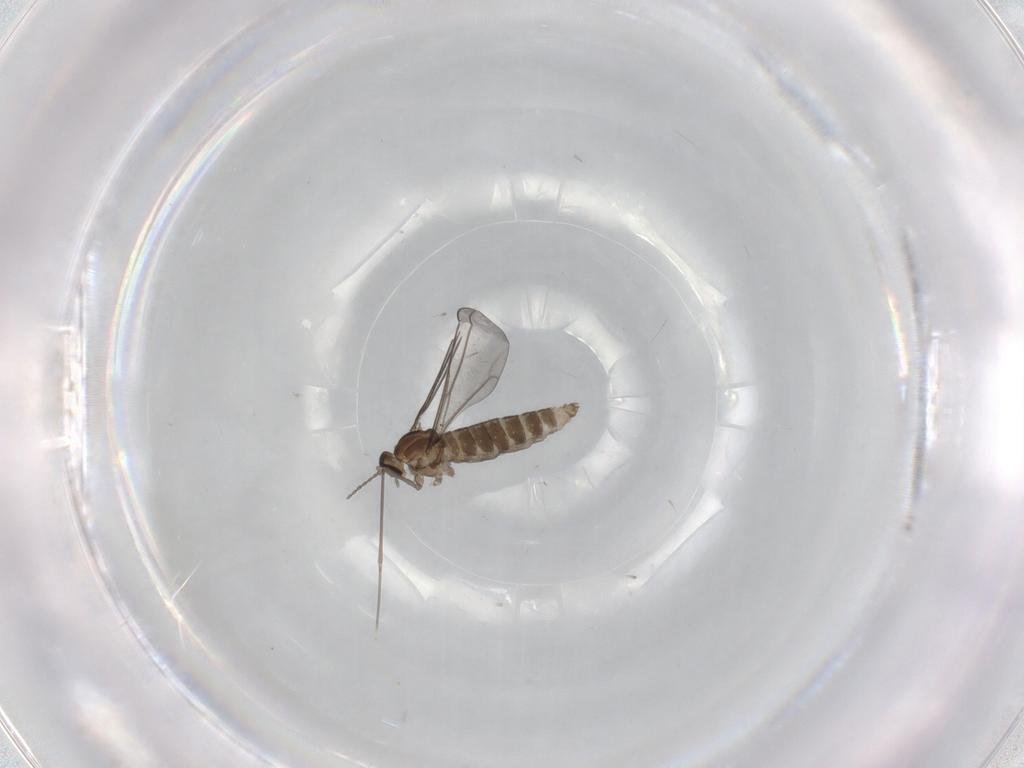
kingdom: Animalia
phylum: Arthropoda
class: Insecta
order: Diptera
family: Cecidomyiidae
